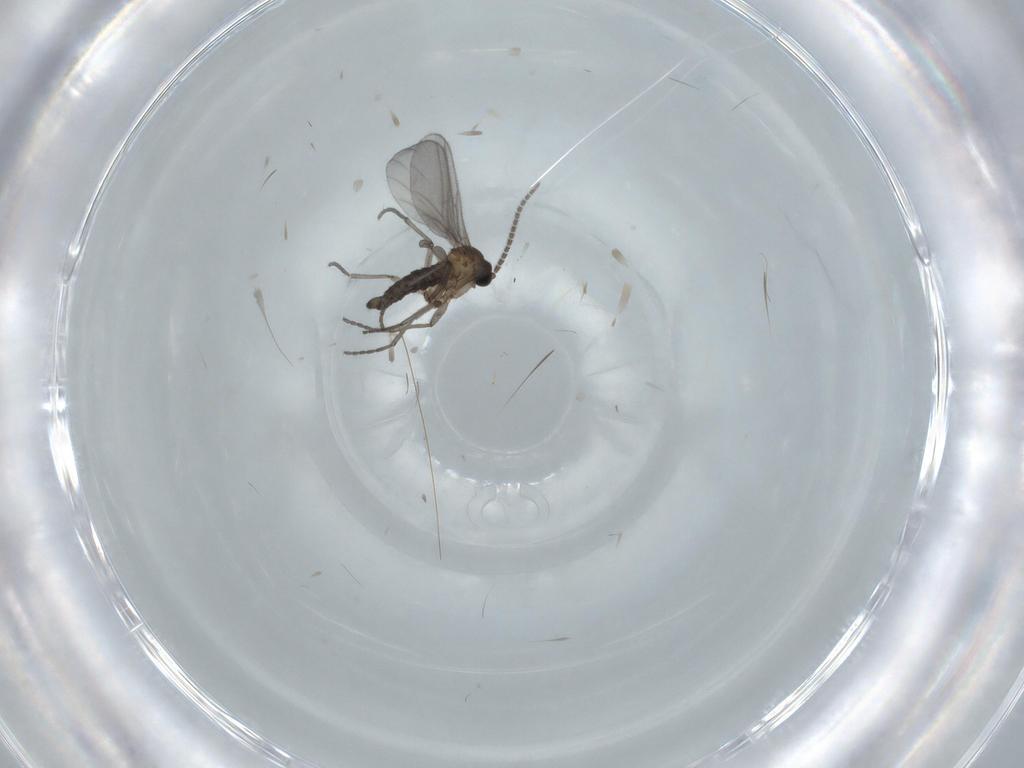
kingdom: Animalia
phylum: Arthropoda
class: Insecta
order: Diptera
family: Sciaridae
